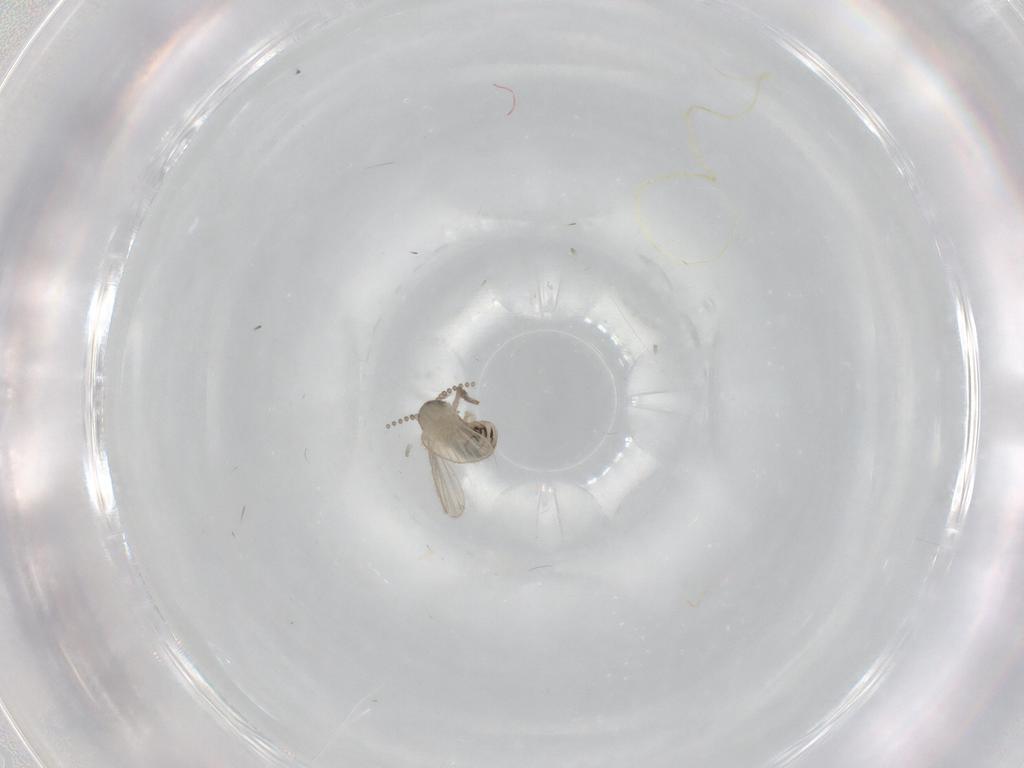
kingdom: Animalia
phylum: Arthropoda
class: Insecta
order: Diptera
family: Psychodidae
